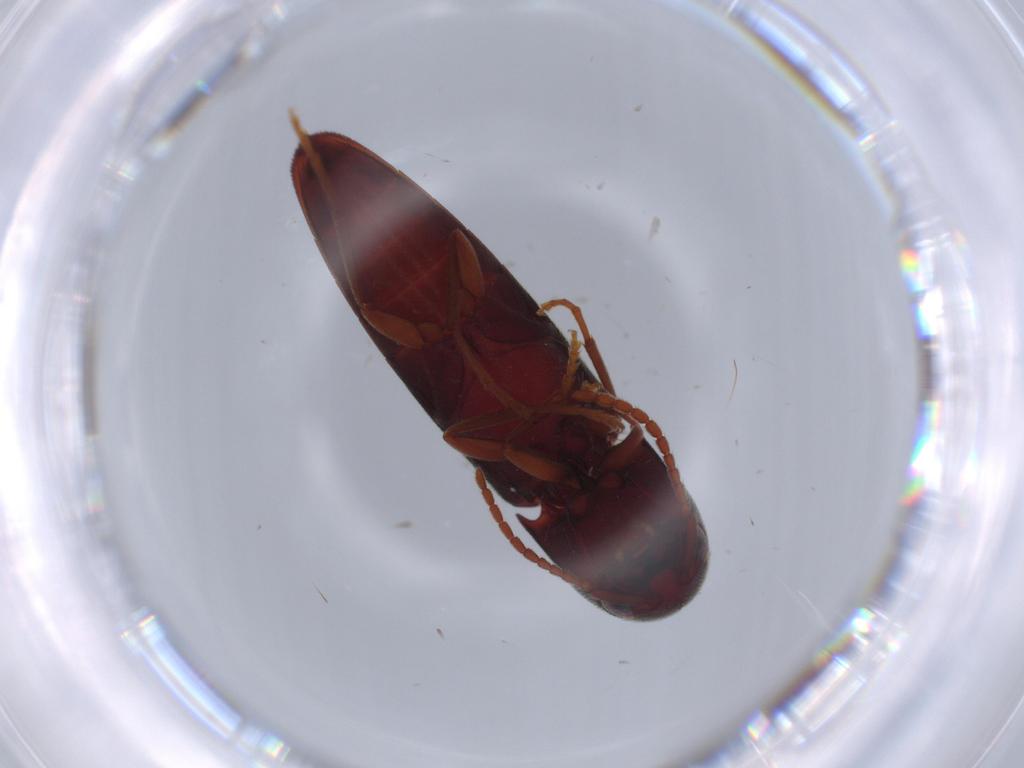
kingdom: Animalia
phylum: Arthropoda
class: Insecta
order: Coleoptera
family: Eucnemidae
